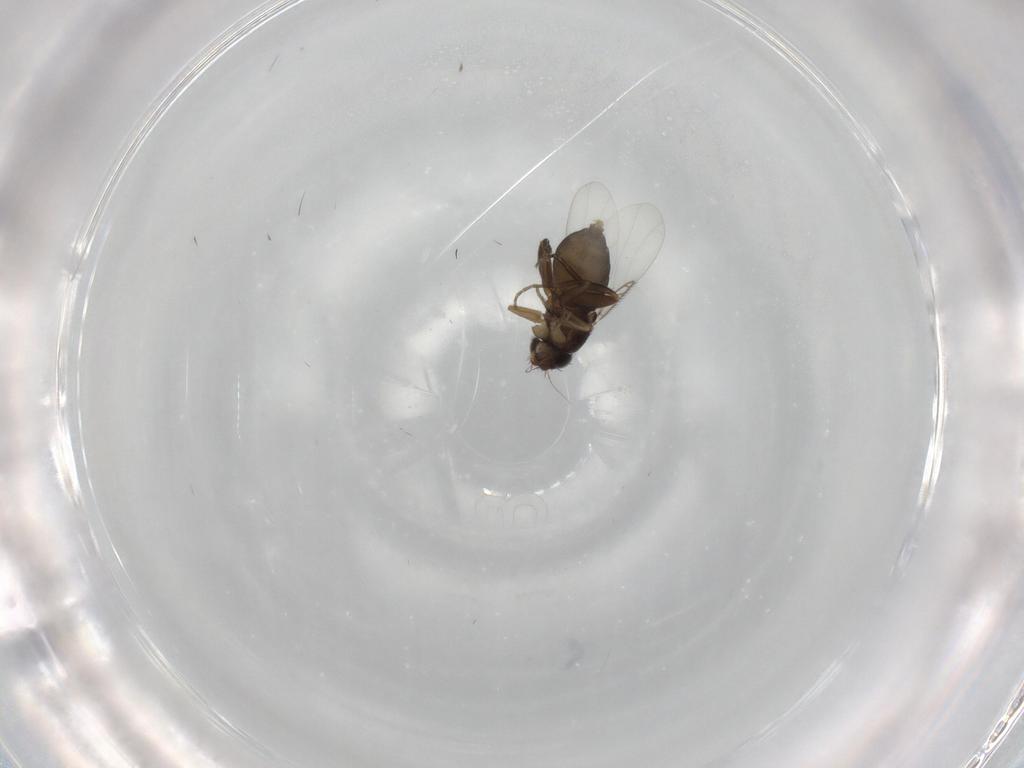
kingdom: Animalia
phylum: Arthropoda
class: Insecta
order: Diptera
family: Phoridae
